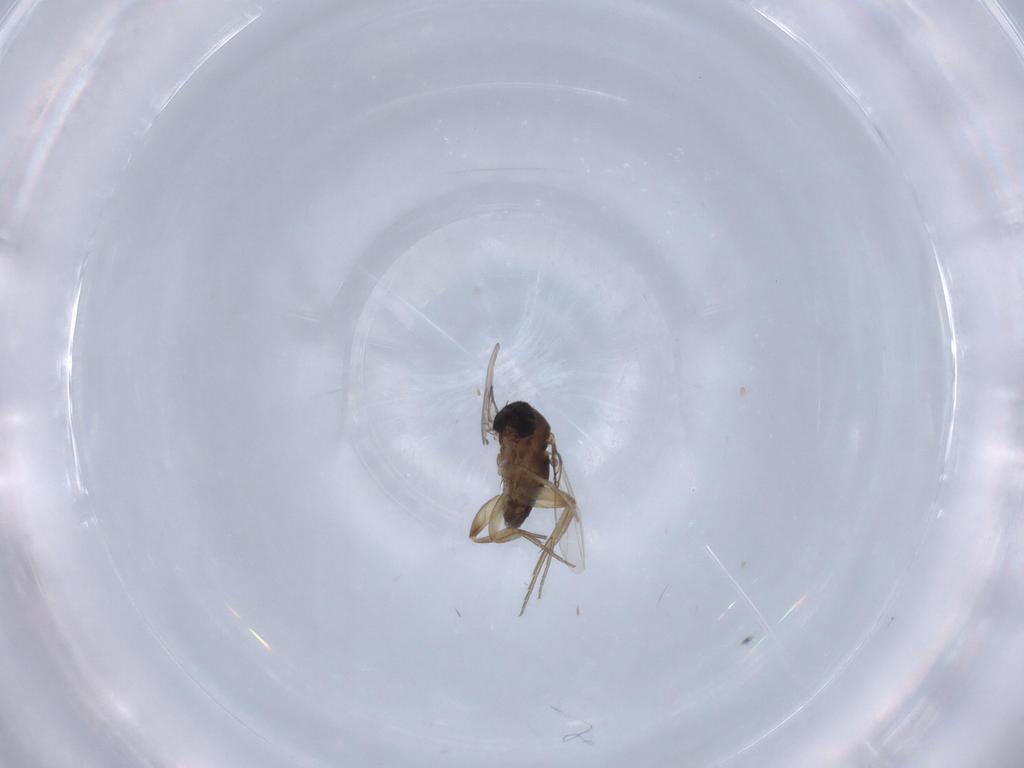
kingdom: Animalia
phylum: Arthropoda
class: Insecta
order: Diptera
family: Phoridae
